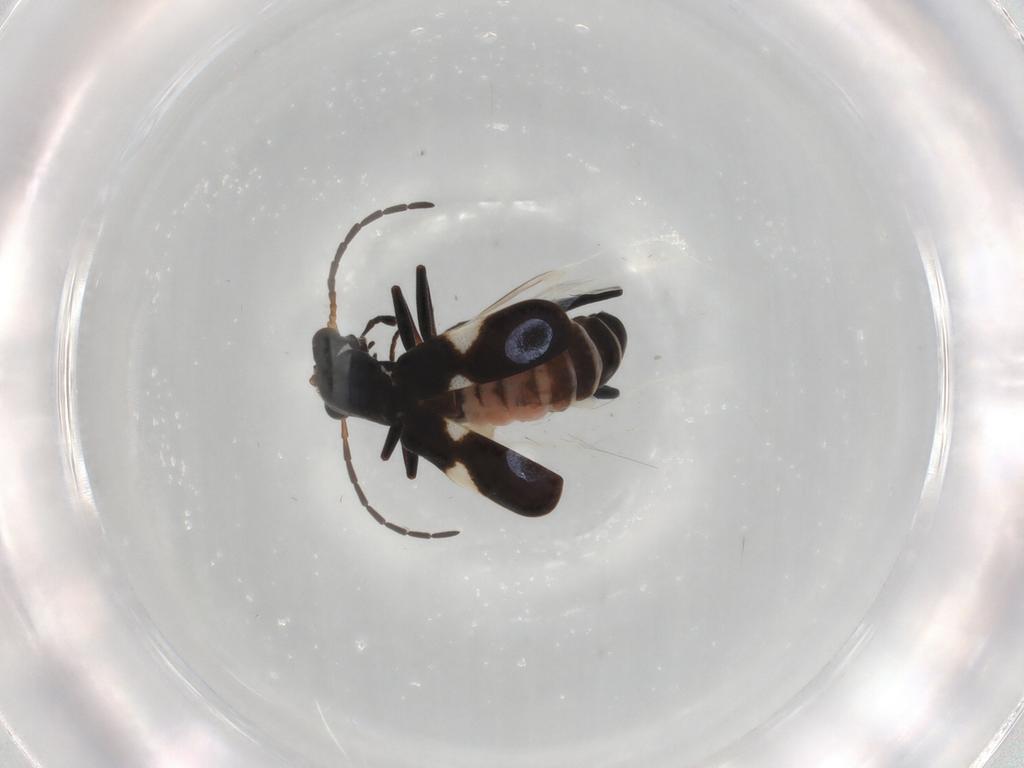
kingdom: Animalia
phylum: Arthropoda
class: Insecta
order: Coleoptera
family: Melyridae
